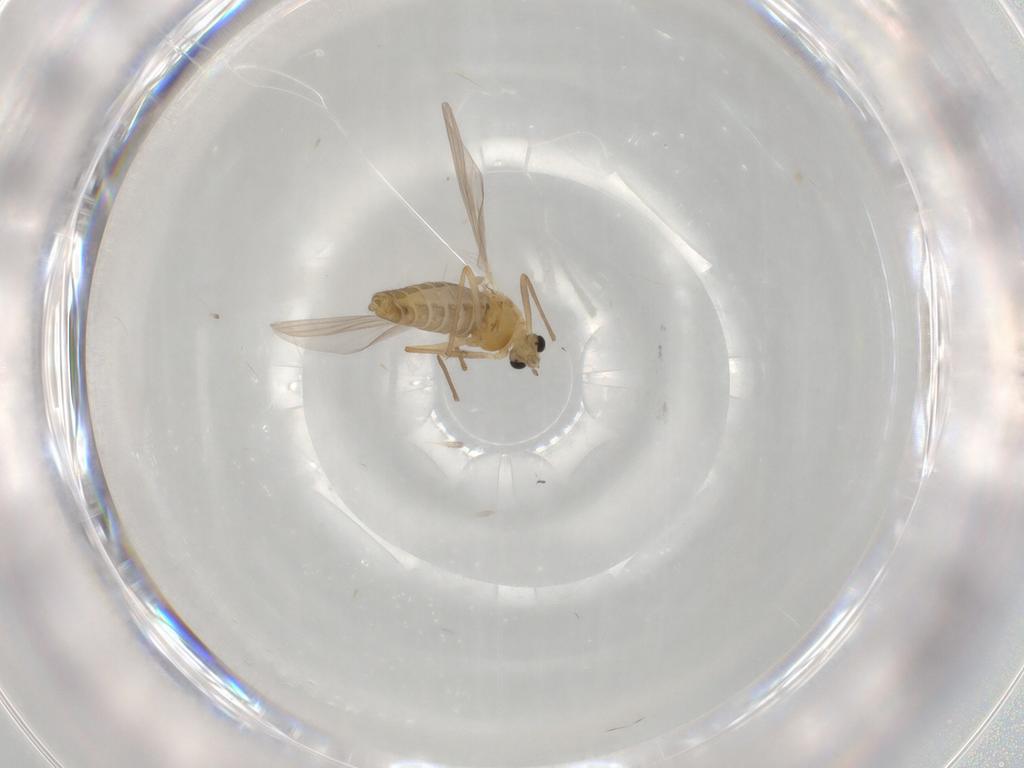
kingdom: Animalia
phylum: Arthropoda
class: Insecta
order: Diptera
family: Chironomidae
